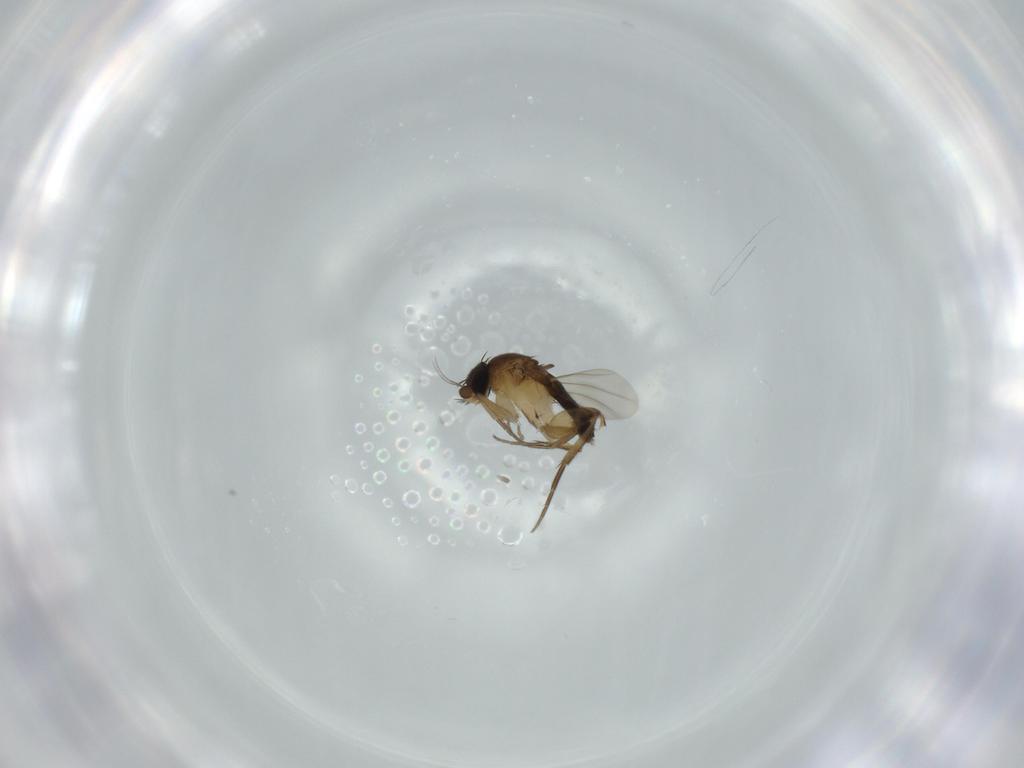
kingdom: Animalia
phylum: Arthropoda
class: Insecta
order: Diptera
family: Phoridae
